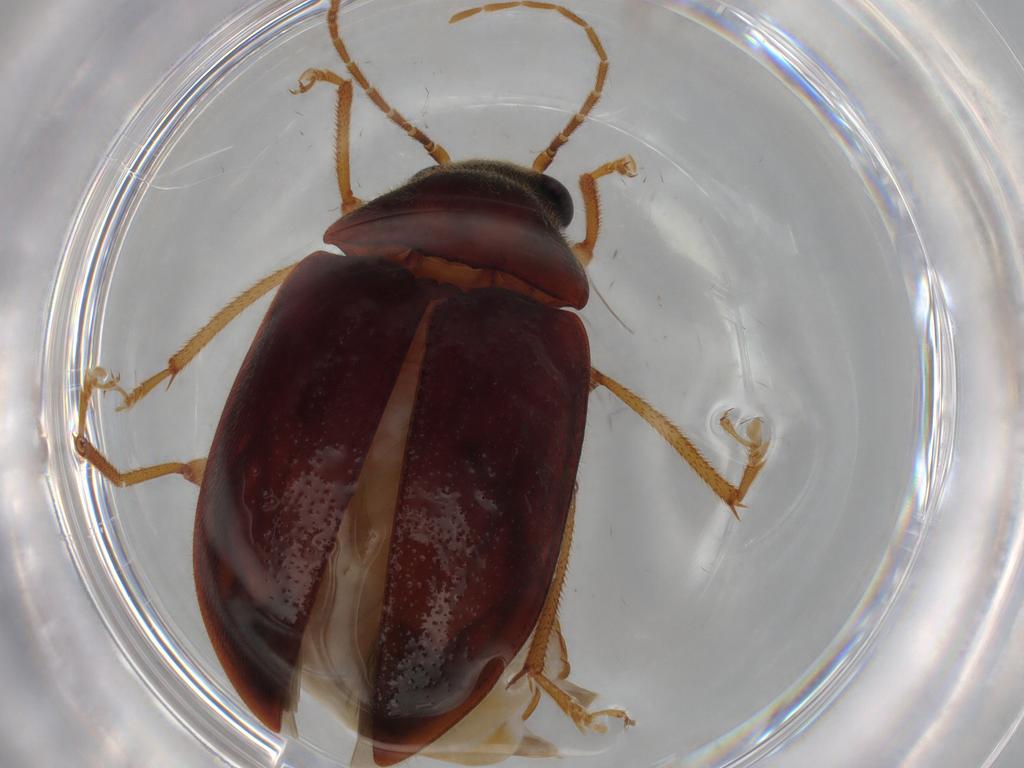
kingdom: Animalia
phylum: Arthropoda
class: Insecta
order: Coleoptera
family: Ptilodactylidae
